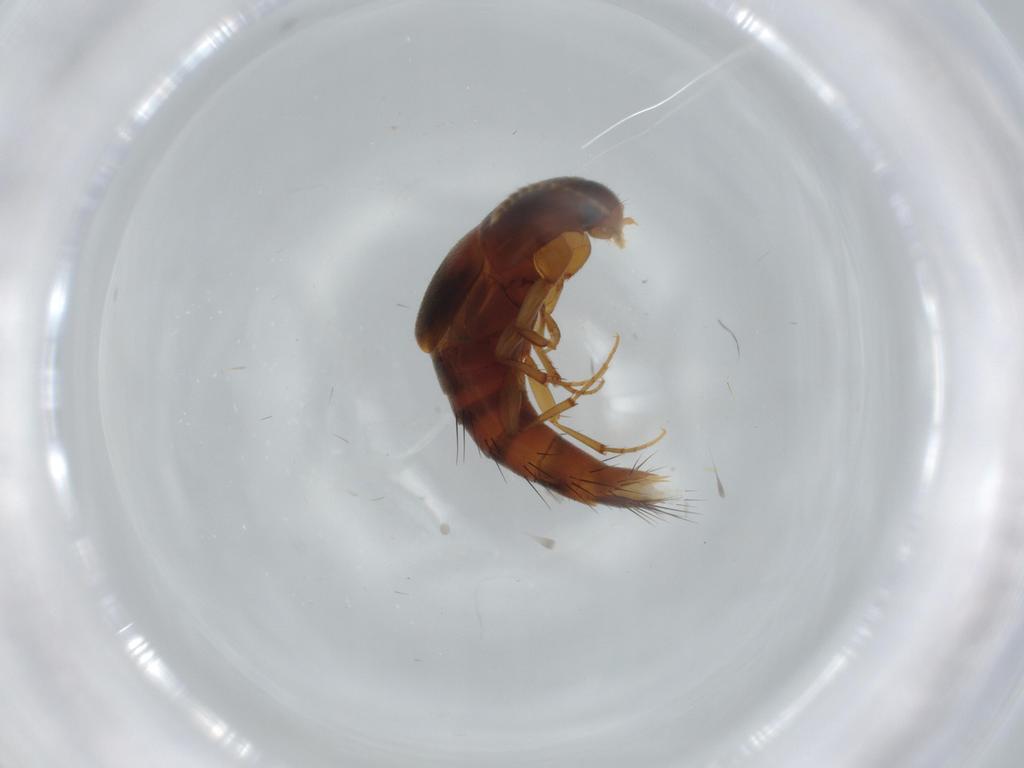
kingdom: Animalia
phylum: Arthropoda
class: Insecta
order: Coleoptera
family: Staphylinidae
